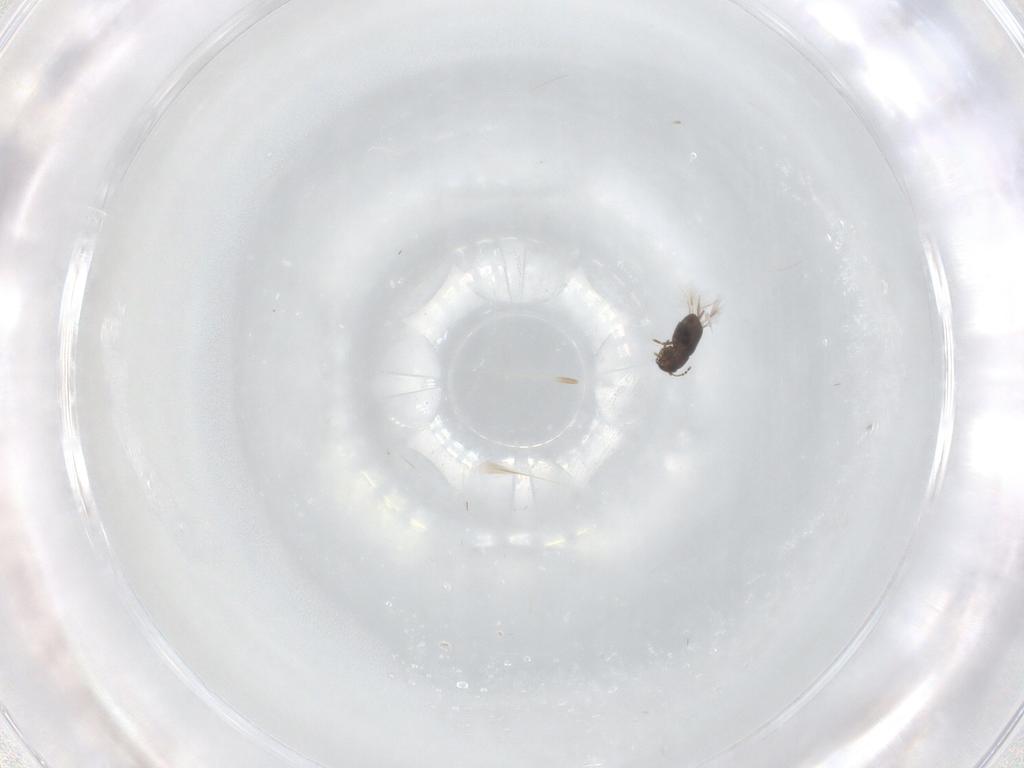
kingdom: Animalia
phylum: Arthropoda
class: Insecta
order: Coleoptera
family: Ptiliidae
